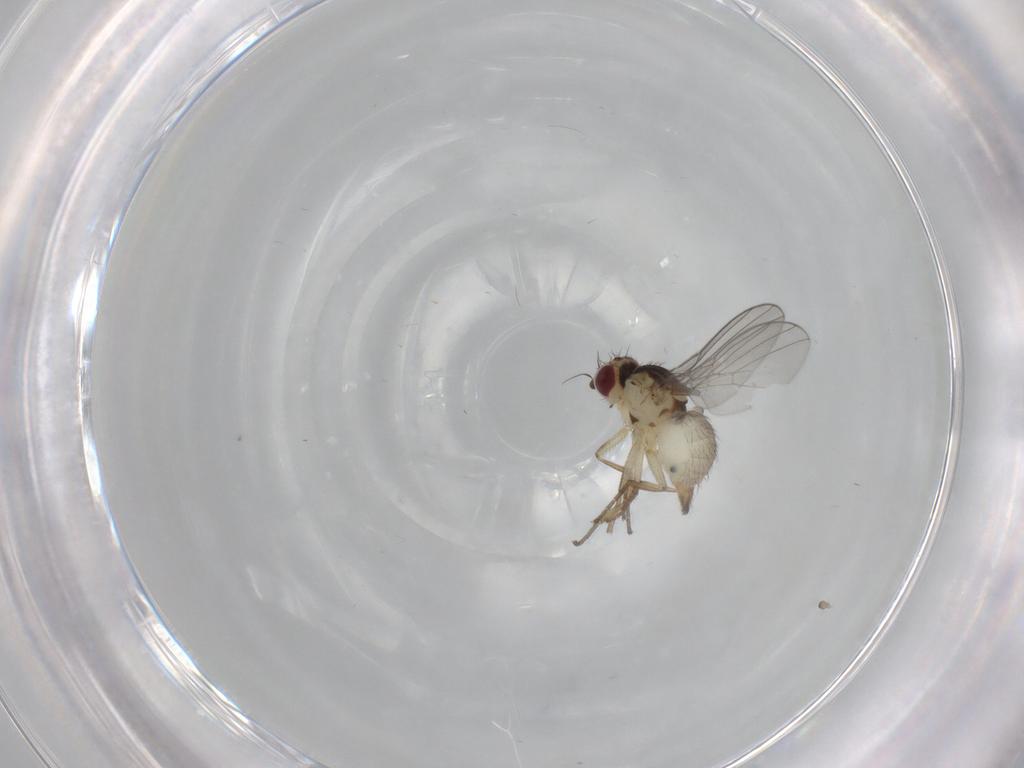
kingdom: Animalia
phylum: Arthropoda
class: Insecta
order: Diptera
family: Agromyzidae
